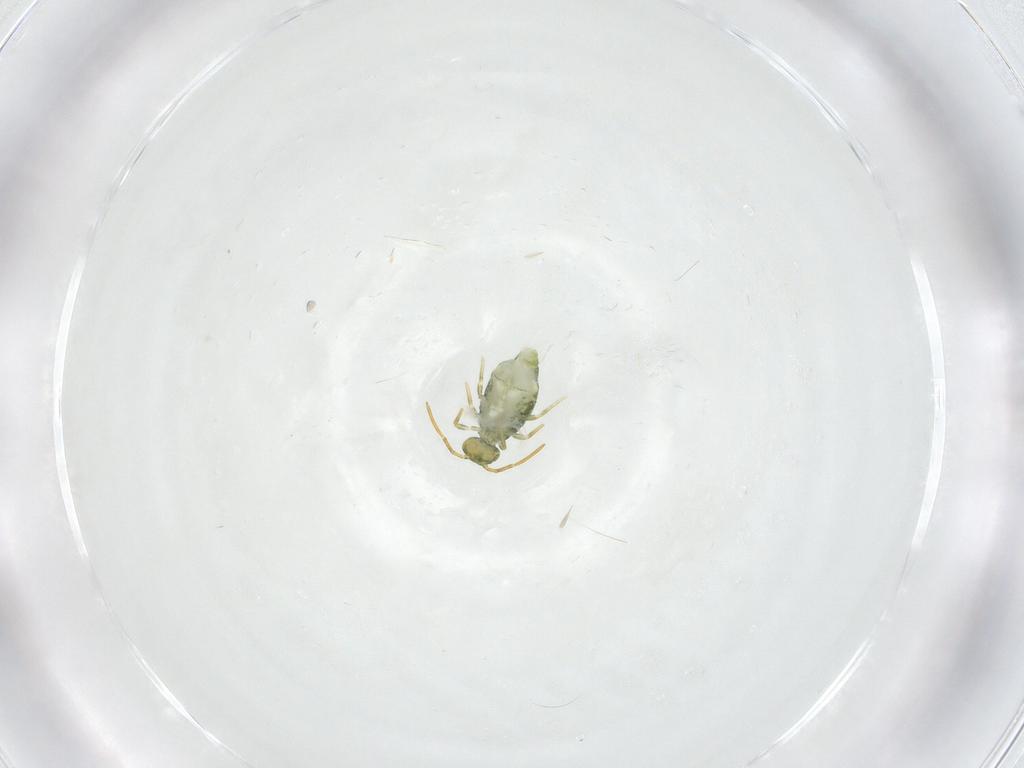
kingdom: Animalia
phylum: Arthropoda
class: Collembola
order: Symphypleona
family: Katiannidae
